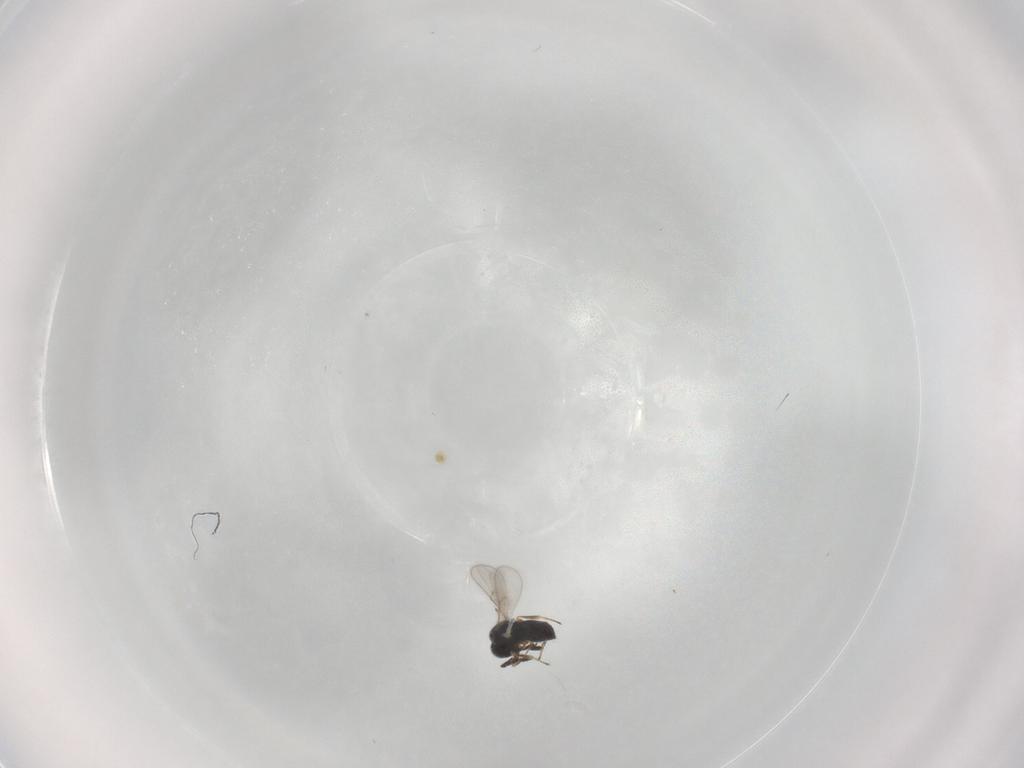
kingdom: Animalia
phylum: Arthropoda
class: Insecta
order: Hymenoptera
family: Scelionidae
